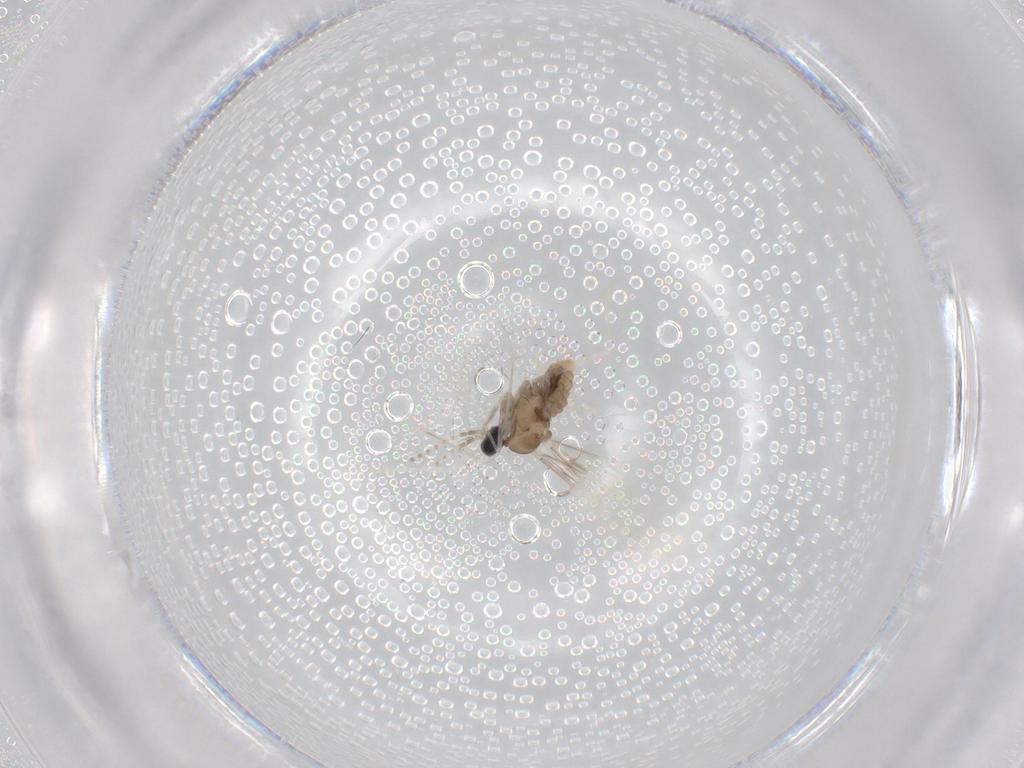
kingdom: Animalia
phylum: Arthropoda
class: Insecta
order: Diptera
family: Cecidomyiidae
